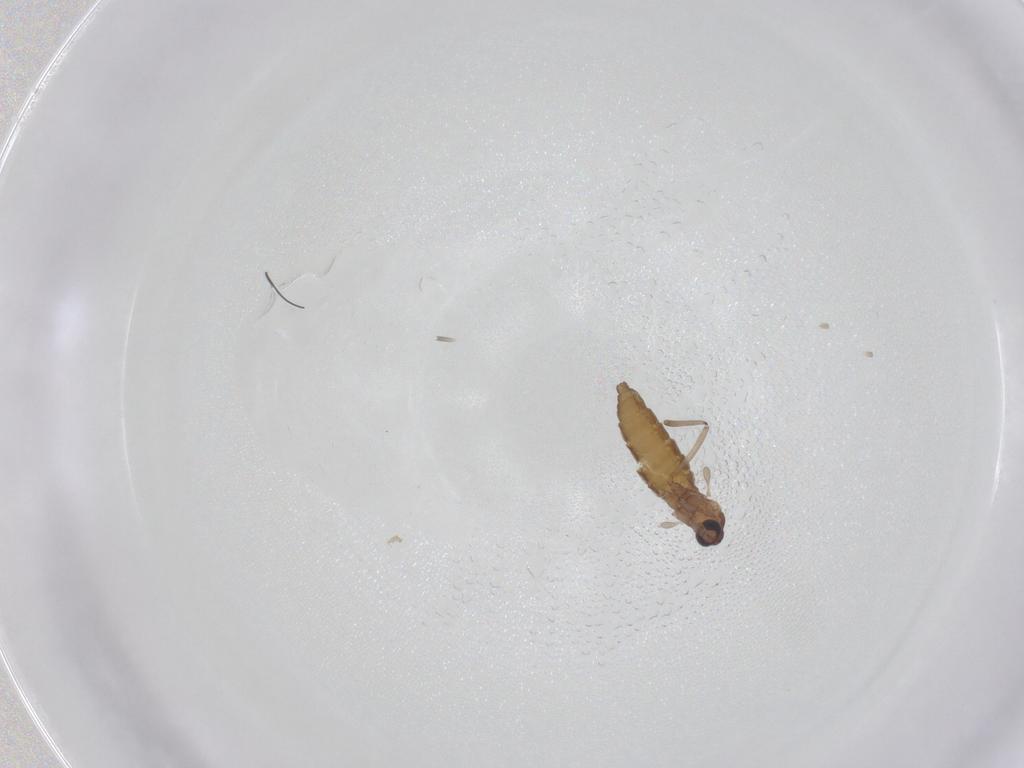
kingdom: Animalia
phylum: Arthropoda
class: Insecta
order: Diptera
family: Cecidomyiidae
